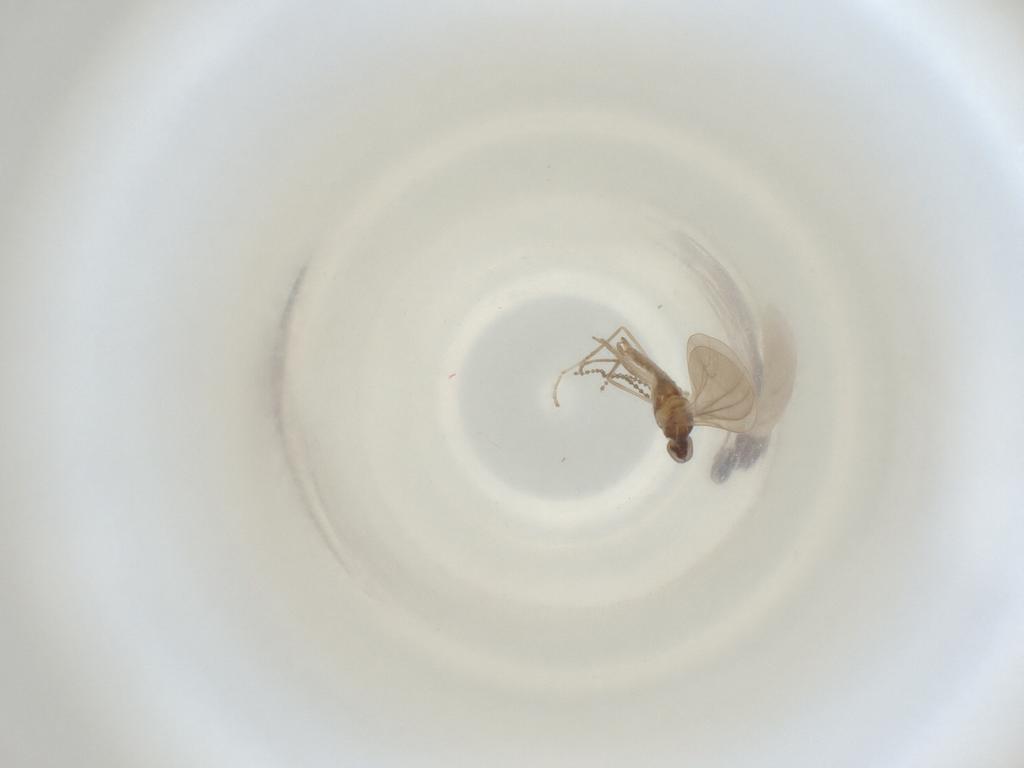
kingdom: Animalia
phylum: Arthropoda
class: Insecta
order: Diptera
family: Cecidomyiidae
